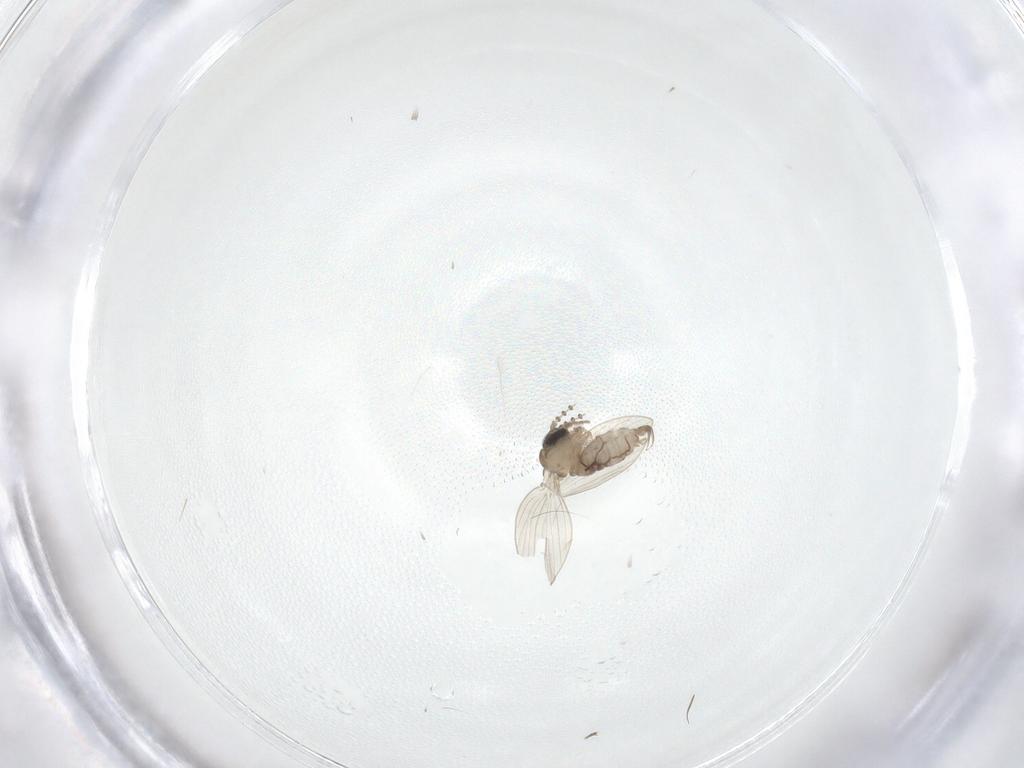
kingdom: Animalia
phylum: Arthropoda
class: Insecta
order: Diptera
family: Psychodidae
